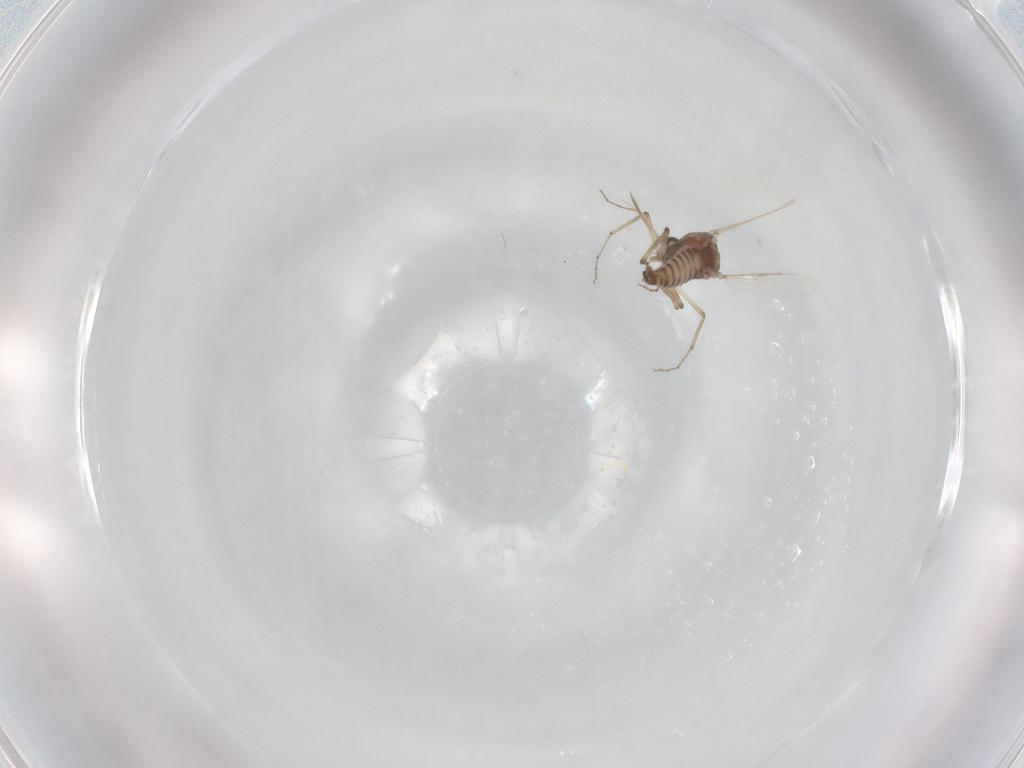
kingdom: Animalia
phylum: Arthropoda
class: Insecta
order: Diptera
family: Ceratopogonidae
